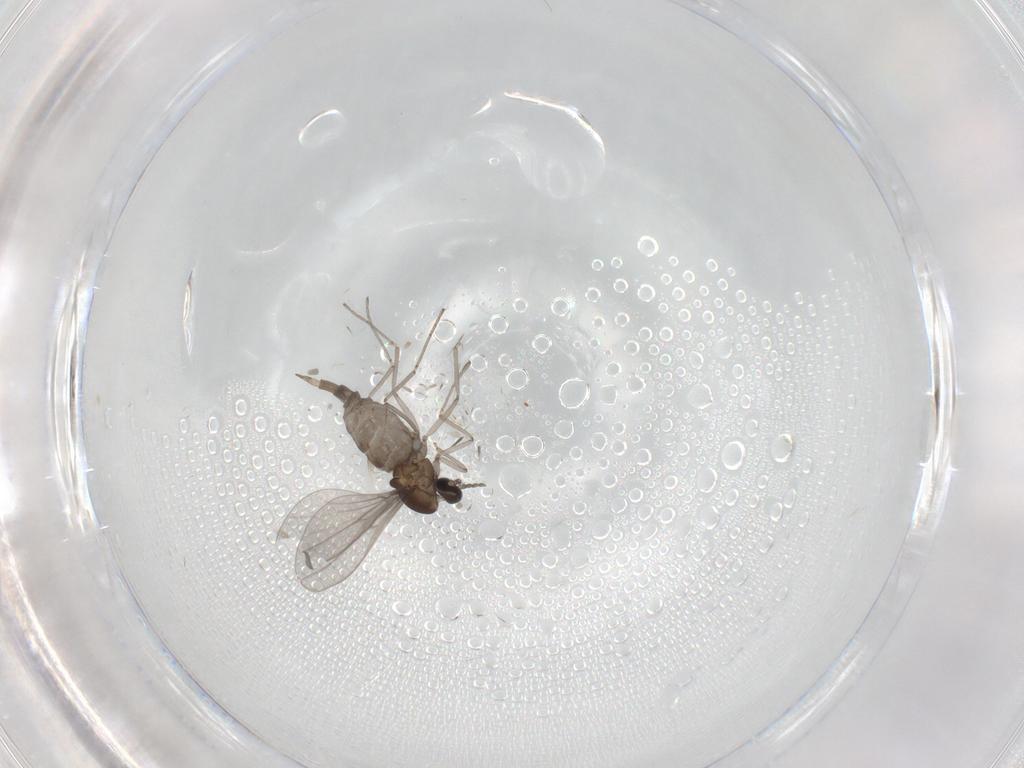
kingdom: Animalia
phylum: Arthropoda
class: Insecta
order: Diptera
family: Cecidomyiidae
